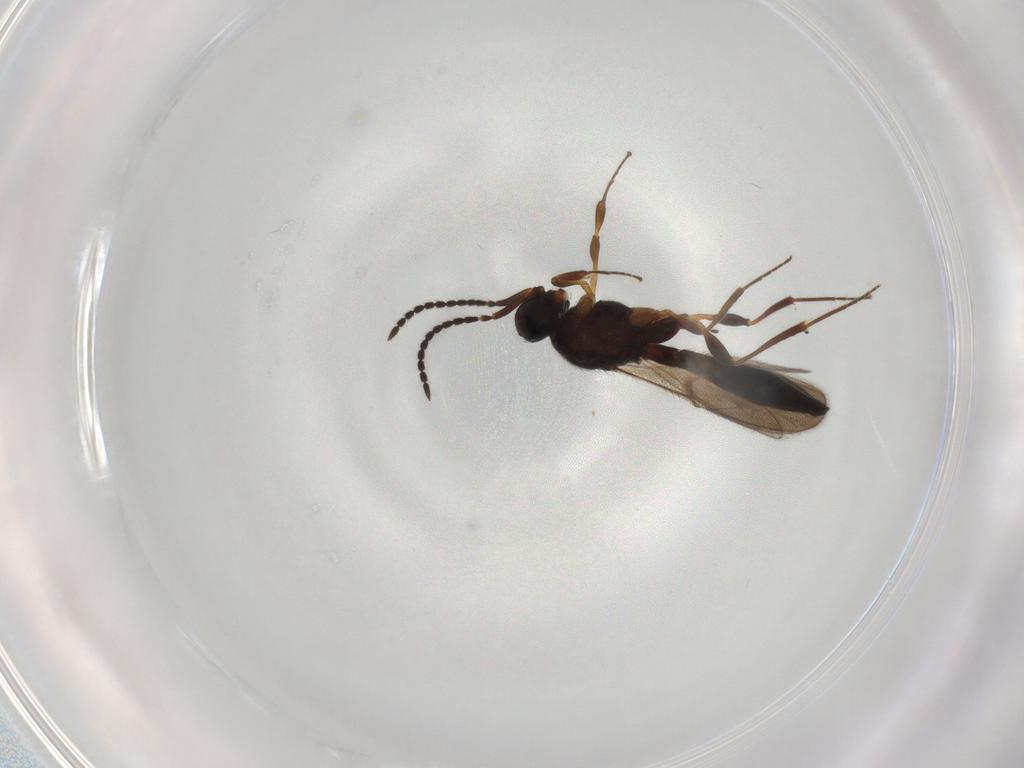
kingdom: Animalia
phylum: Arthropoda
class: Insecta
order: Hymenoptera
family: Scelionidae
